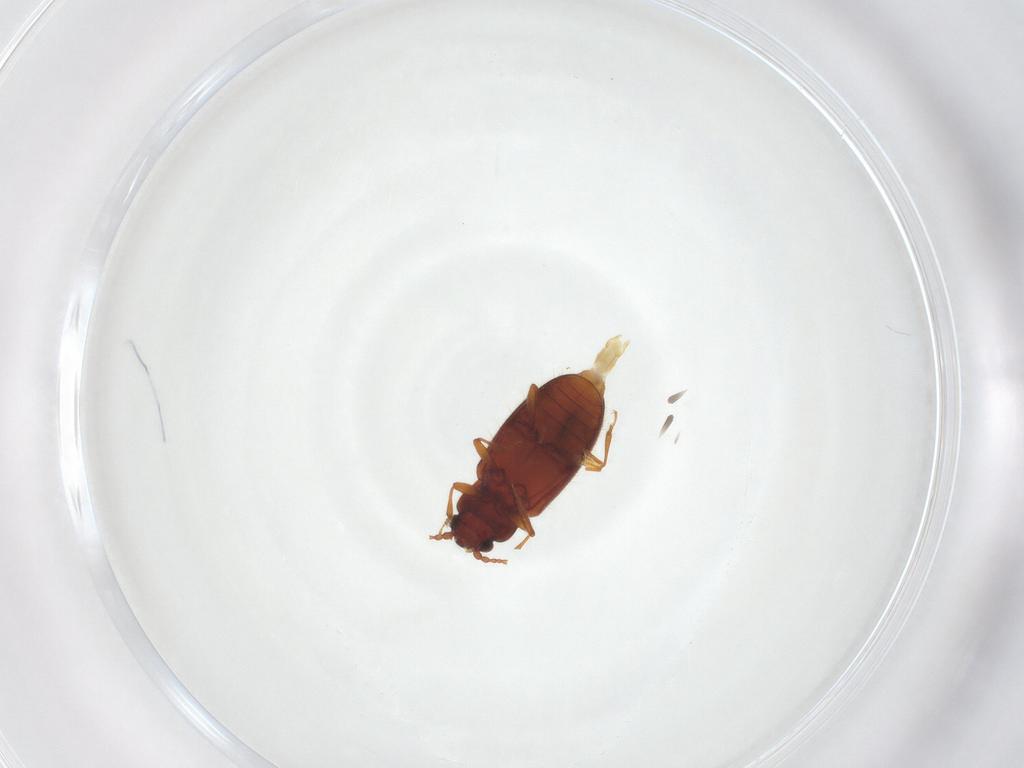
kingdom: Animalia
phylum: Arthropoda
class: Insecta
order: Coleoptera
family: Cryptophagidae
